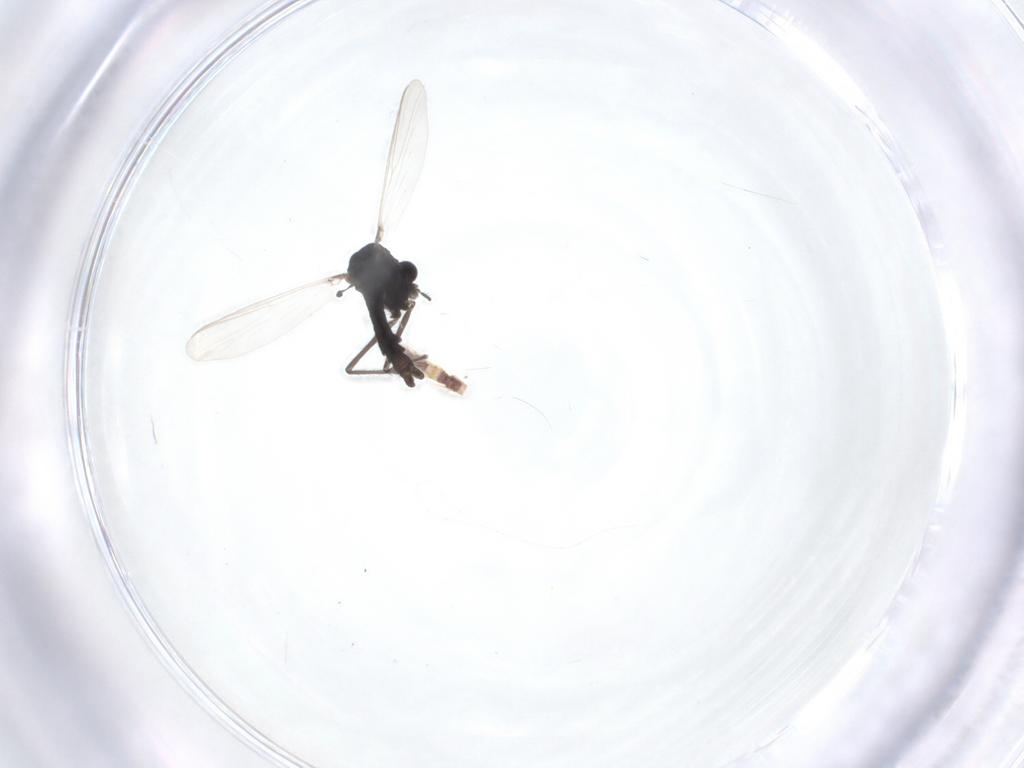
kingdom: Animalia
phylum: Arthropoda
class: Insecta
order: Diptera
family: Chironomidae
